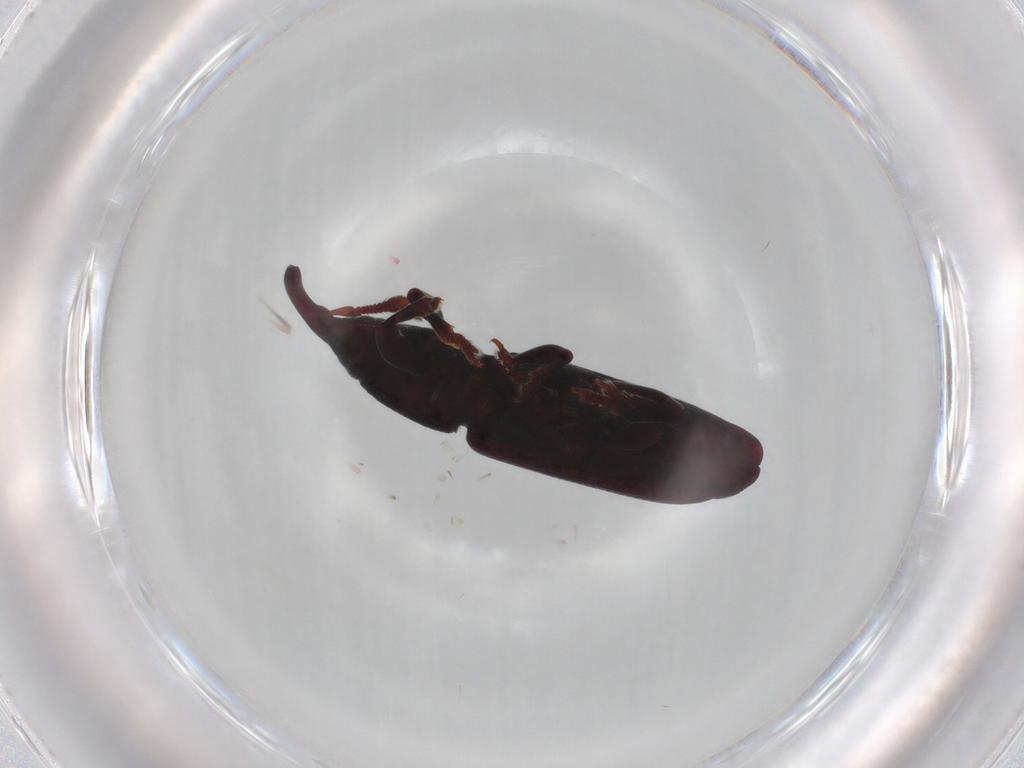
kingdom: Animalia
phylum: Arthropoda
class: Insecta
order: Coleoptera
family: Curculionidae
